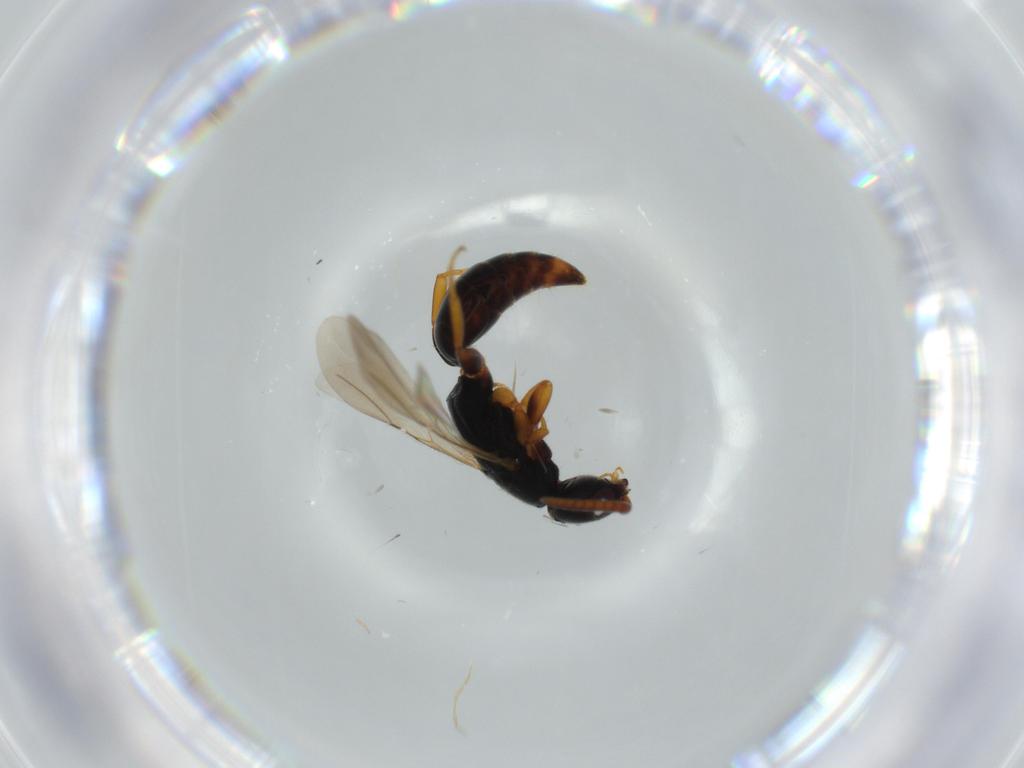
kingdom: Animalia
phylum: Arthropoda
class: Insecta
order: Hymenoptera
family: Bethylidae
